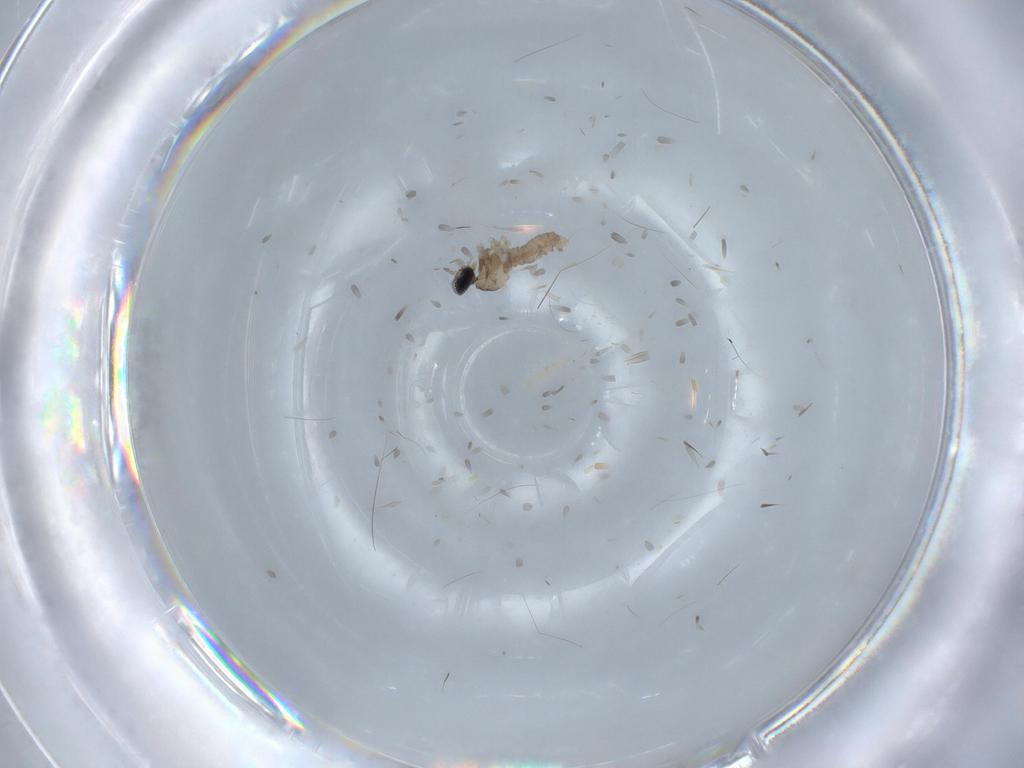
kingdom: Animalia
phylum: Arthropoda
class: Insecta
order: Diptera
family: Cecidomyiidae
